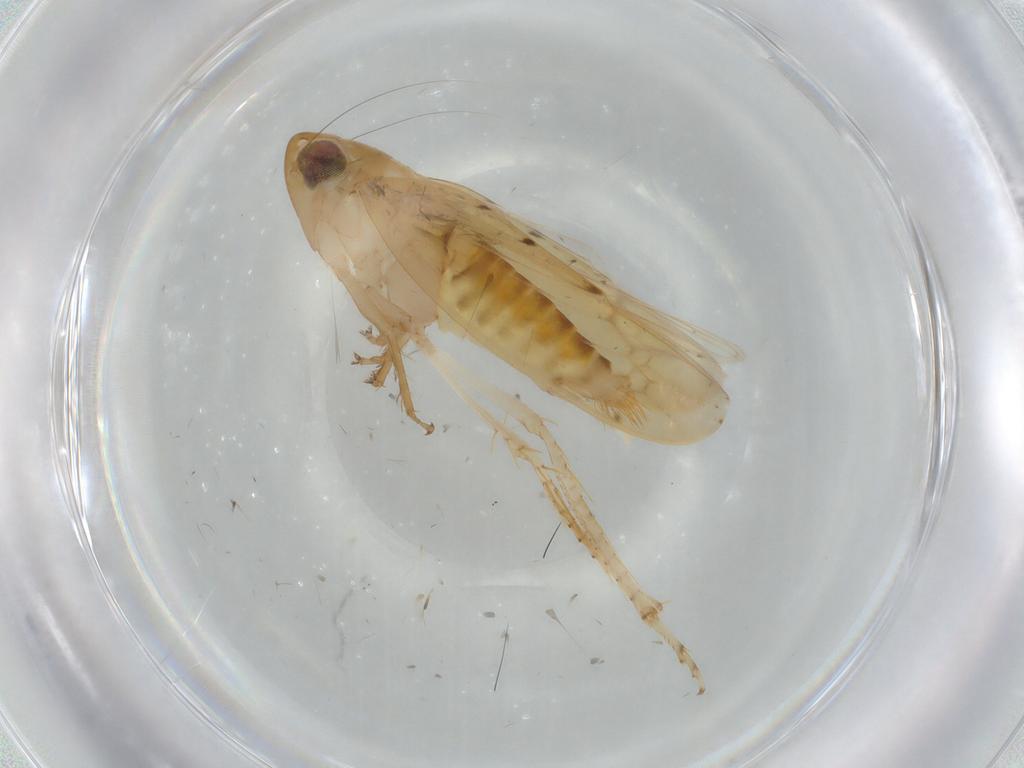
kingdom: Animalia
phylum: Arthropoda
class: Insecta
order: Hemiptera
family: Cicadellidae
